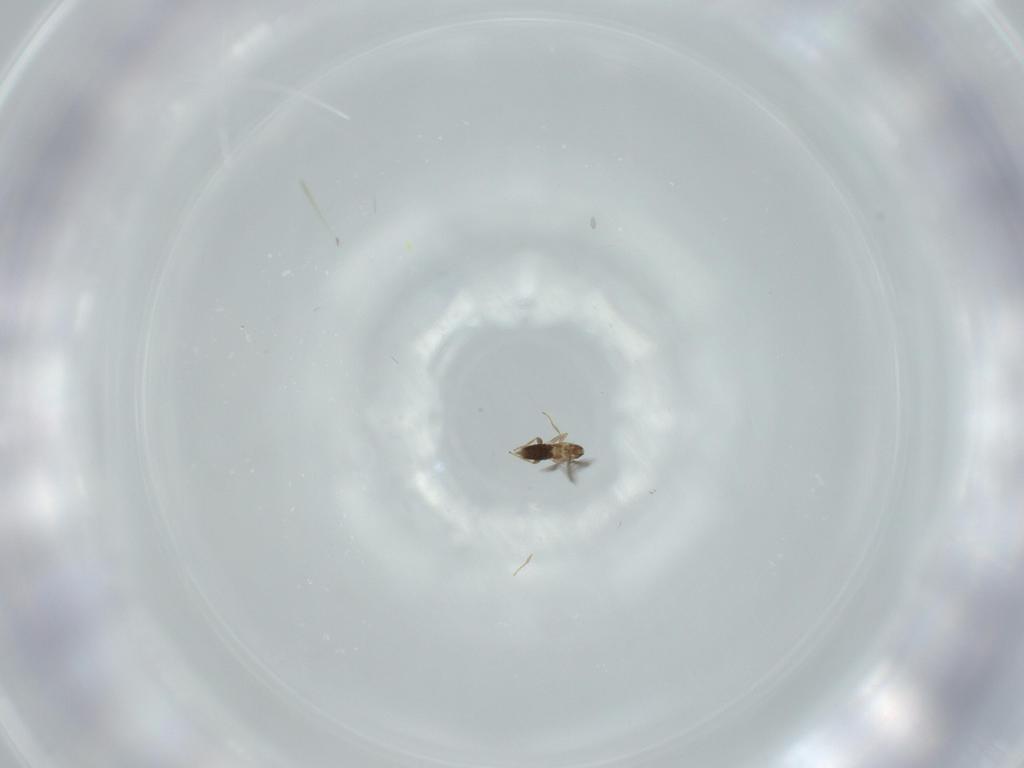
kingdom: Animalia
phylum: Arthropoda
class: Insecta
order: Hymenoptera
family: Mymaridae
